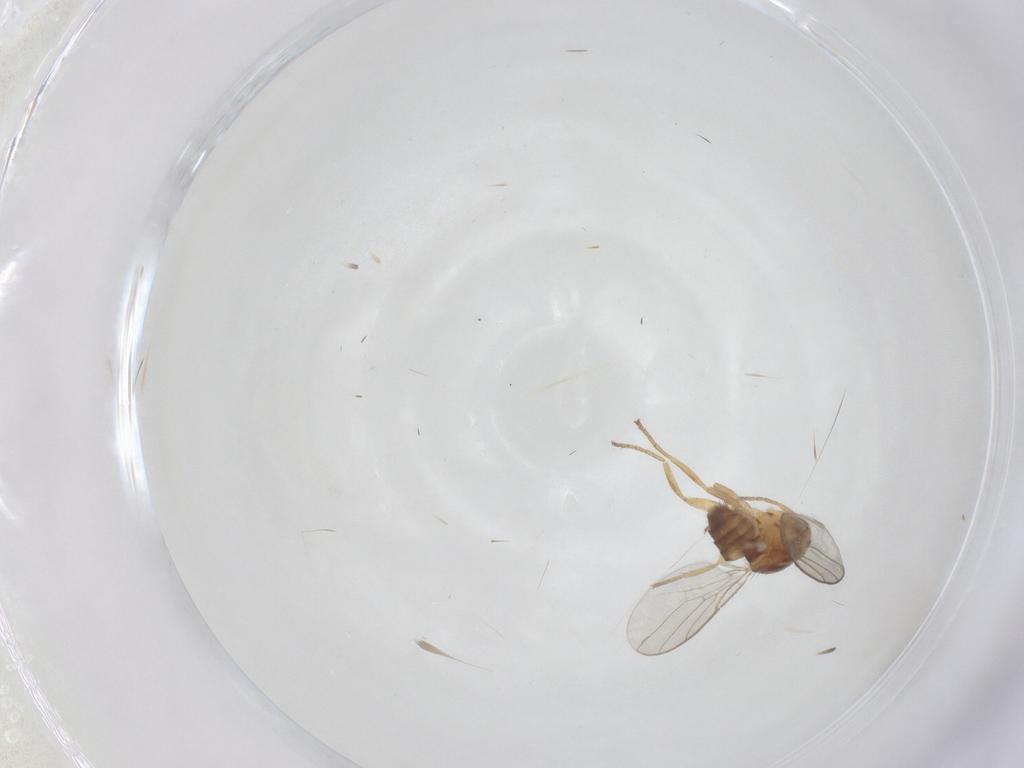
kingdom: Animalia
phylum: Arthropoda
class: Insecta
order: Diptera
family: Chloropidae
